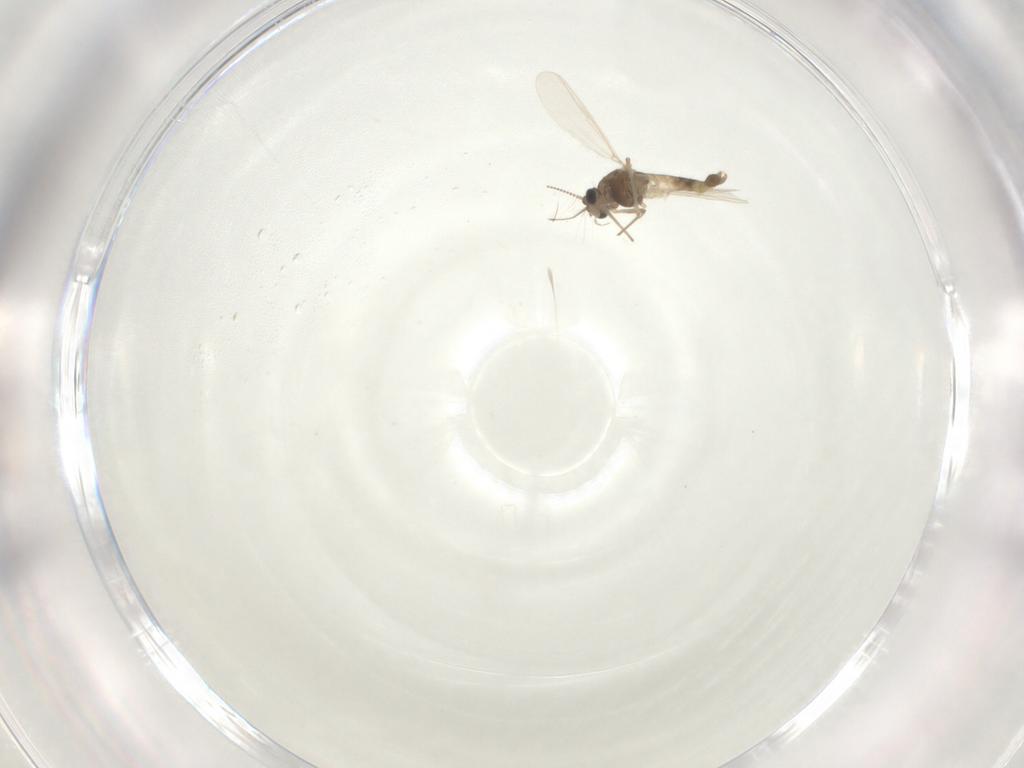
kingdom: Animalia
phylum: Arthropoda
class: Insecta
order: Diptera
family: Chironomidae
